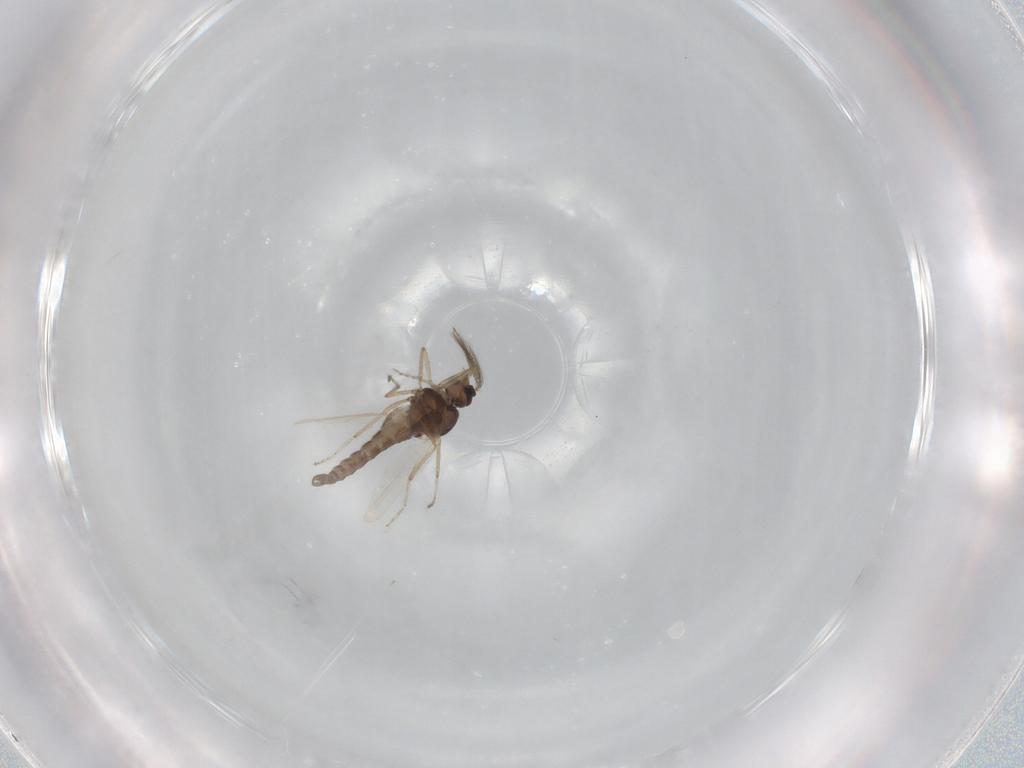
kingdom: Animalia
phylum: Arthropoda
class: Insecta
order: Diptera
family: Ceratopogonidae
